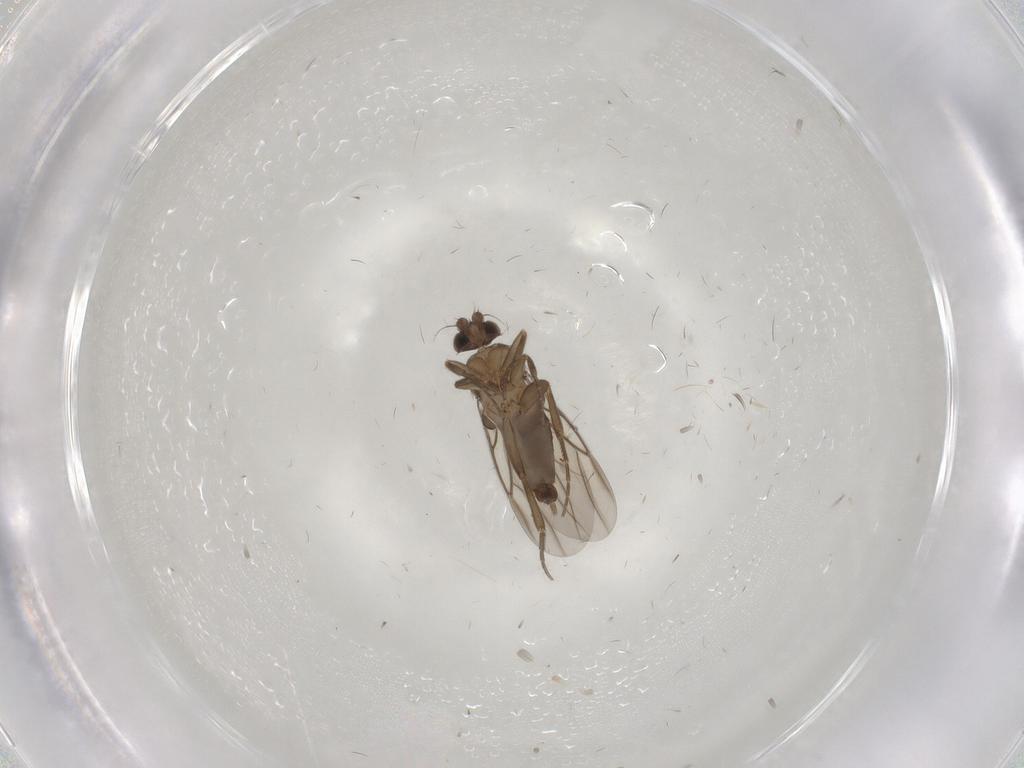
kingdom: Animalia
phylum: Arthropoda
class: Insecta
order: Diptera
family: Phoridae
